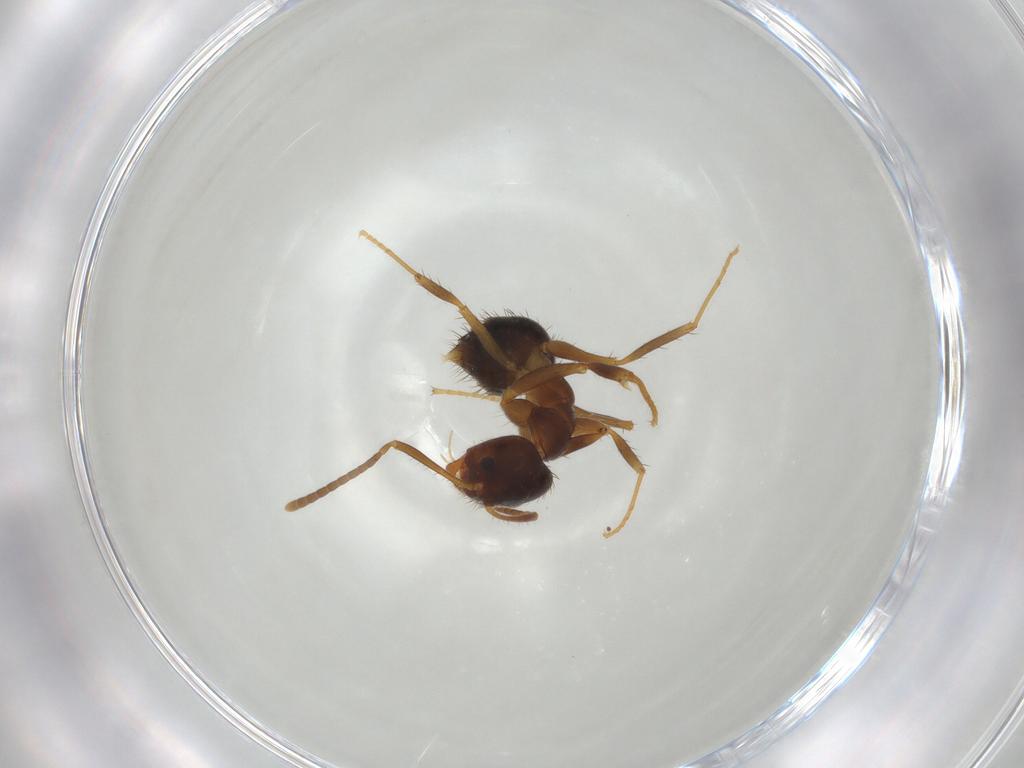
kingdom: Animalia
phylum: Arthropoda
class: Insecta
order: Hymenoptera
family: Formicidae
